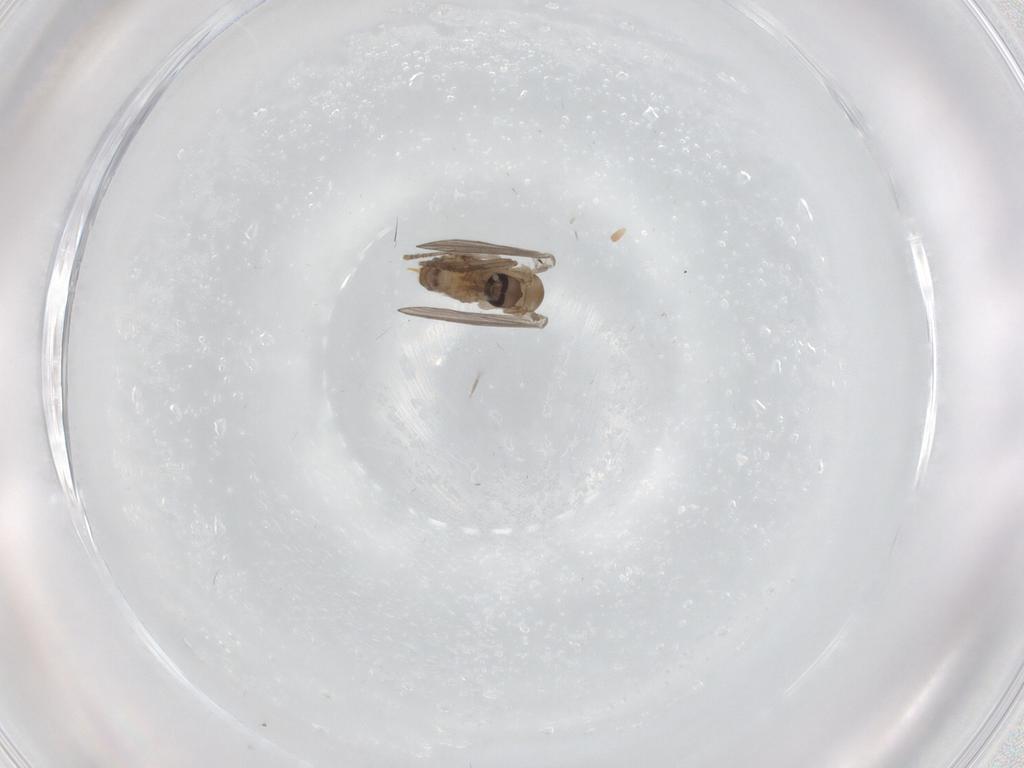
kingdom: Animalia
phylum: Arthropoda
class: Insecta
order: Diptera
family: Psychodidae
